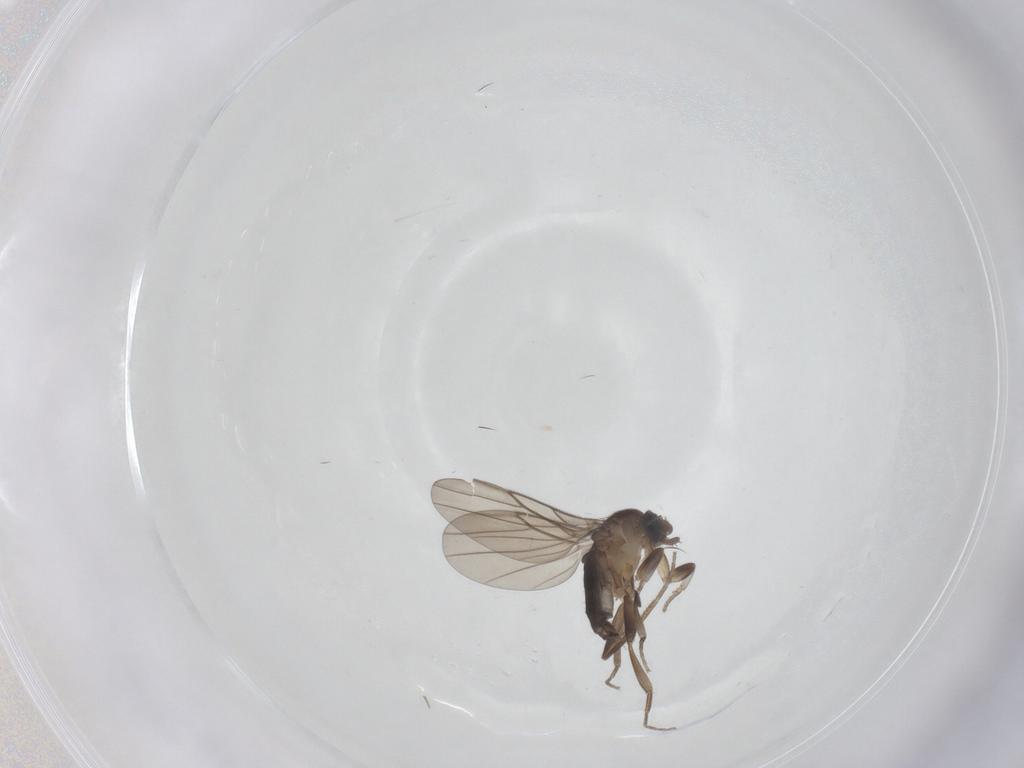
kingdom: Animalia
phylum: Arthropoda
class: Insecta
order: Diptera
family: Cecidomyiidae
